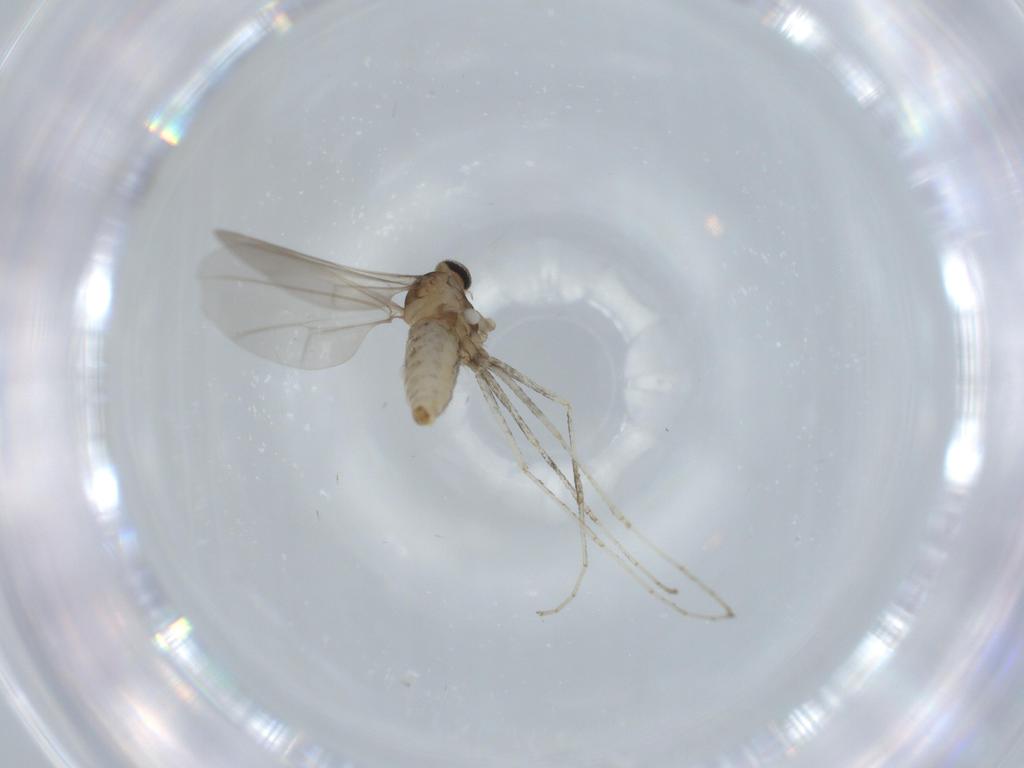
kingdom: Animalia
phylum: Arthropoda
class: Insecta
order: Diptera
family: Cecidomyiidae
